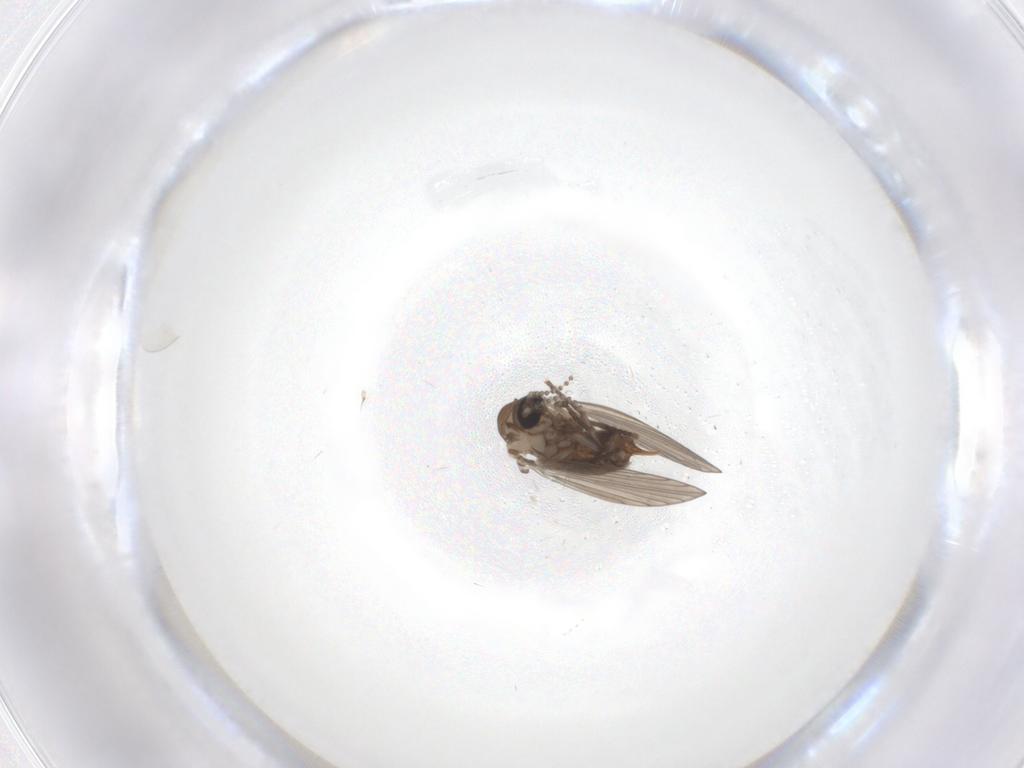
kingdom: Animalia
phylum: Arthropoda
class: Insecta
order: Diptera
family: Psychodidae
